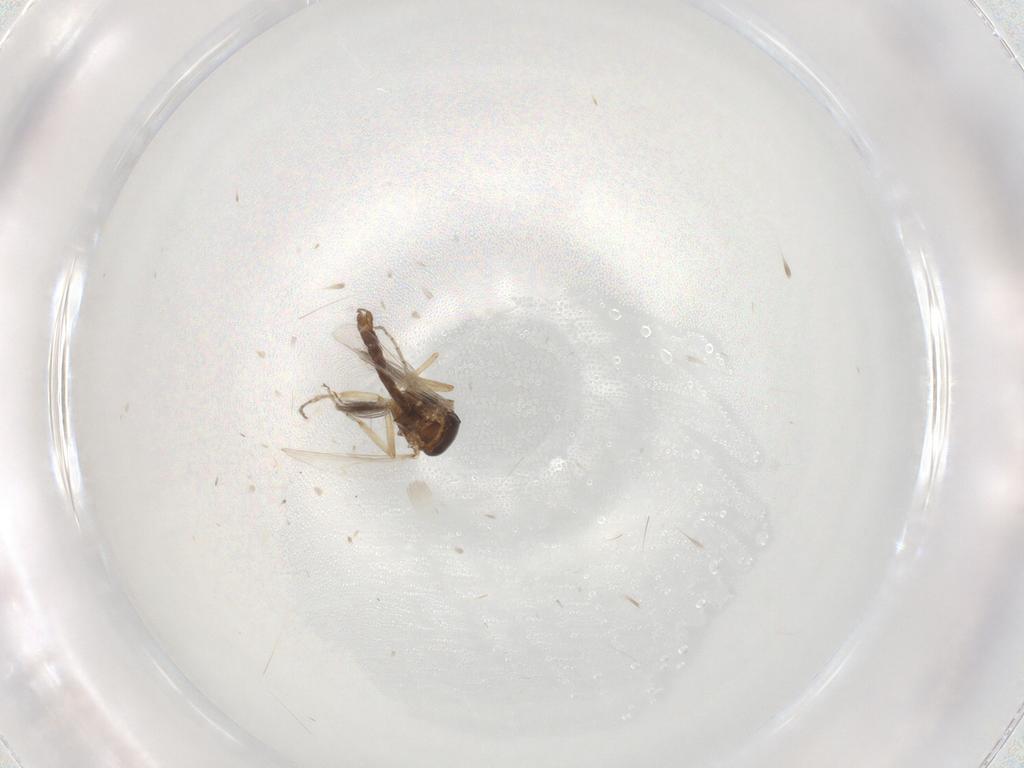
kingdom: Animalia
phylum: Arthropoda
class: Insecta
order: Diptera
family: Ceratopogonidae
